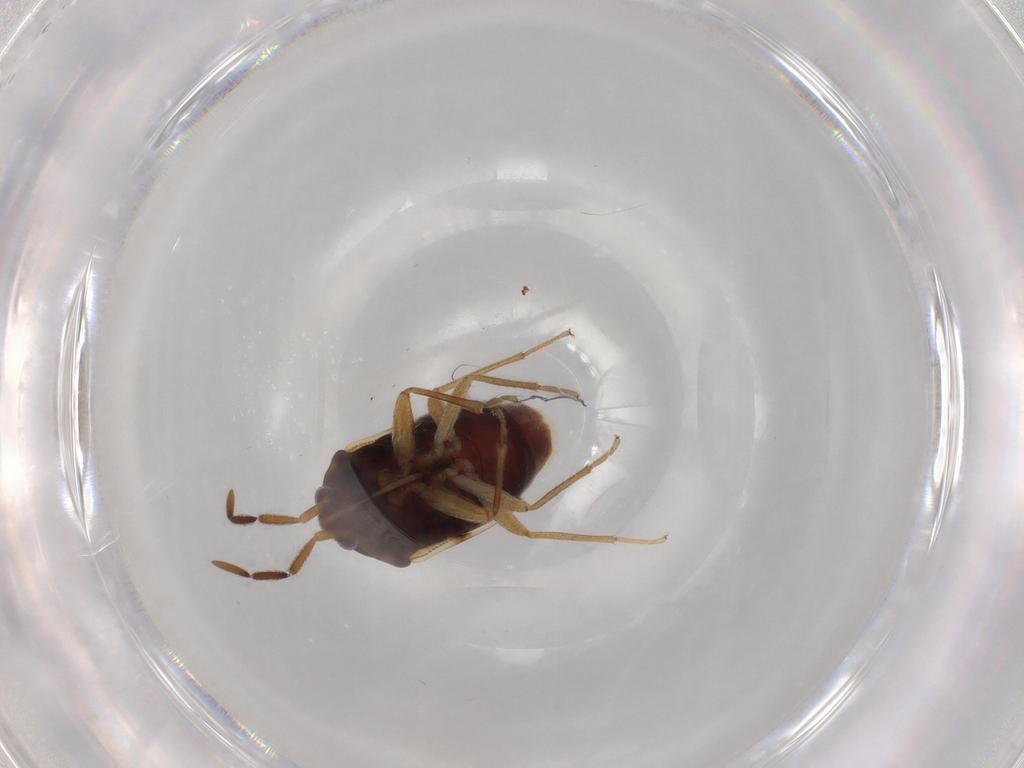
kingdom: Animalia
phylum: Arthropoda
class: Insecta
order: Hemiptera
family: Rhyparochromidae
